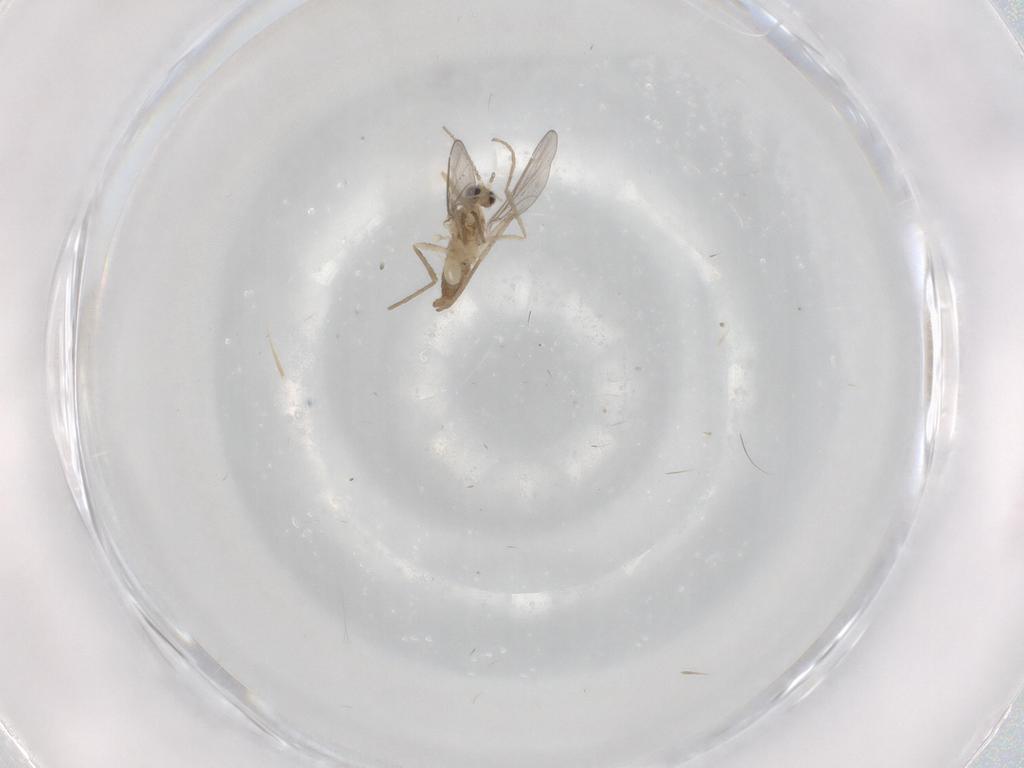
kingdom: Animalia
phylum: Arthropoda
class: Insecta
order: Diptera
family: Cecidomyiidae
